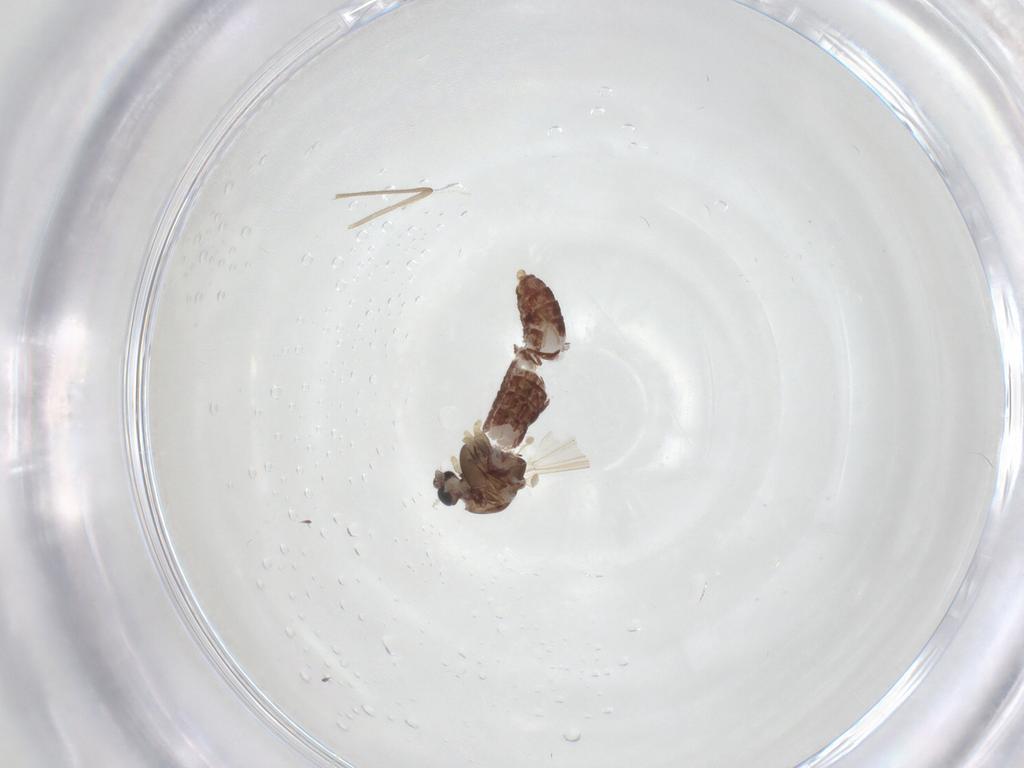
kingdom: Animalia
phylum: Arthropoda
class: Insecta
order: Diptera
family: Chironomidae
